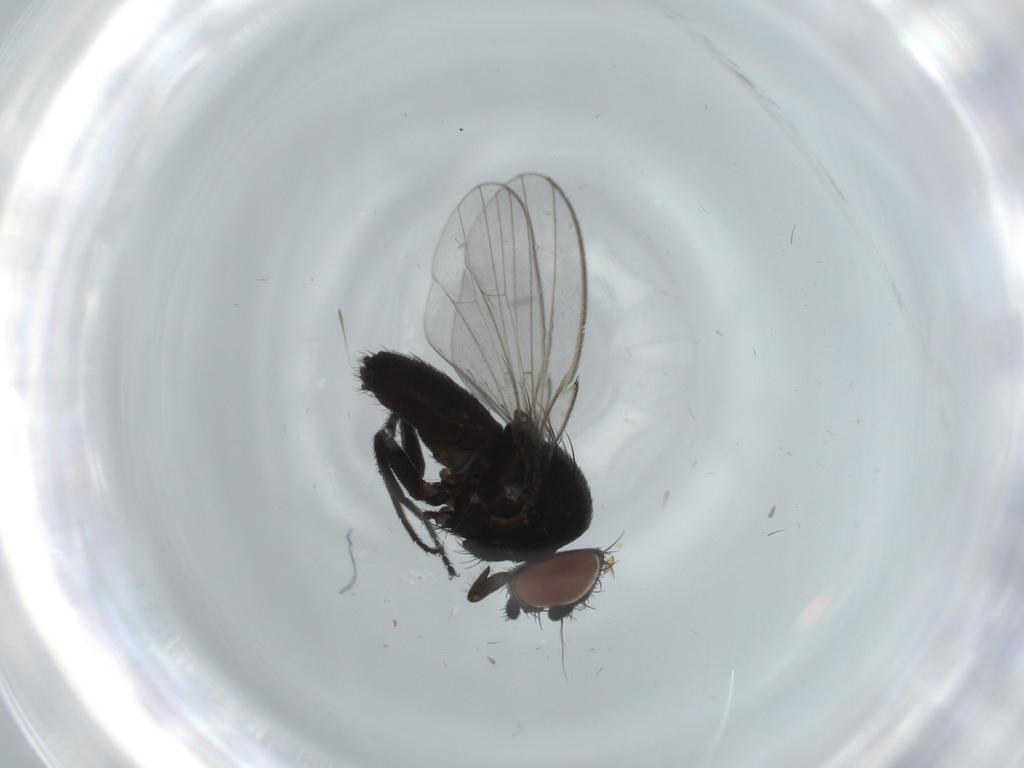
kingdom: Animalia
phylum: Arthropoda
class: Insecta
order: Diptera
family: Milichiidae
